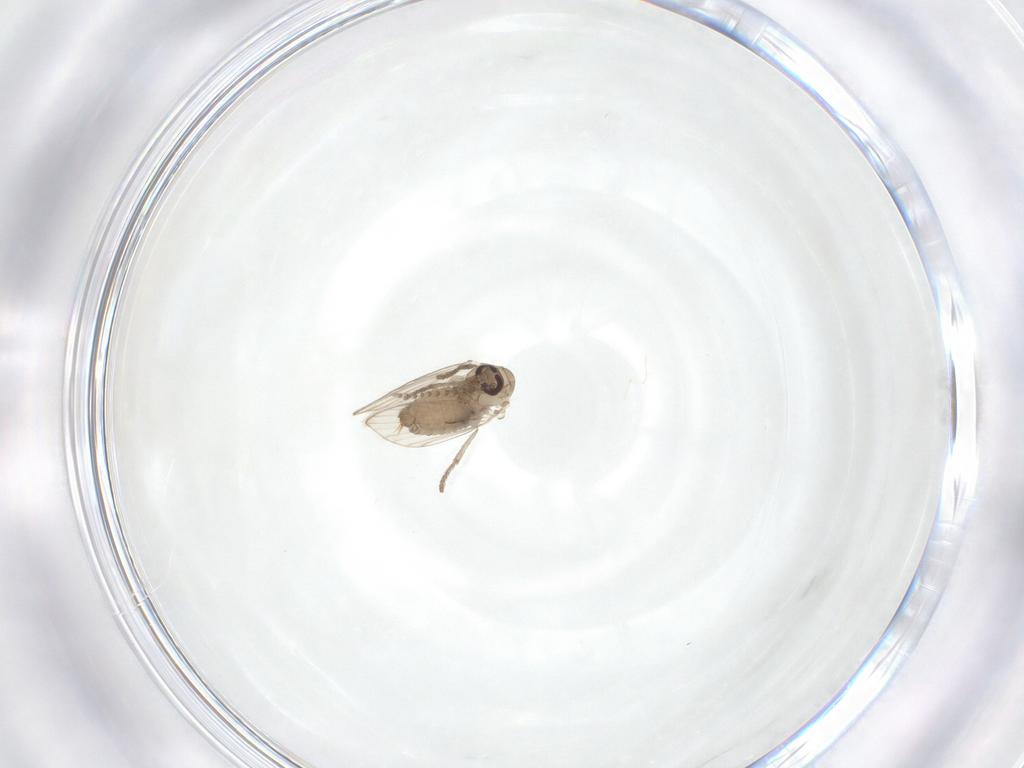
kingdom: Animalia
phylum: Arthropoda
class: Insecta
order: Diptera
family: Psychodidae
